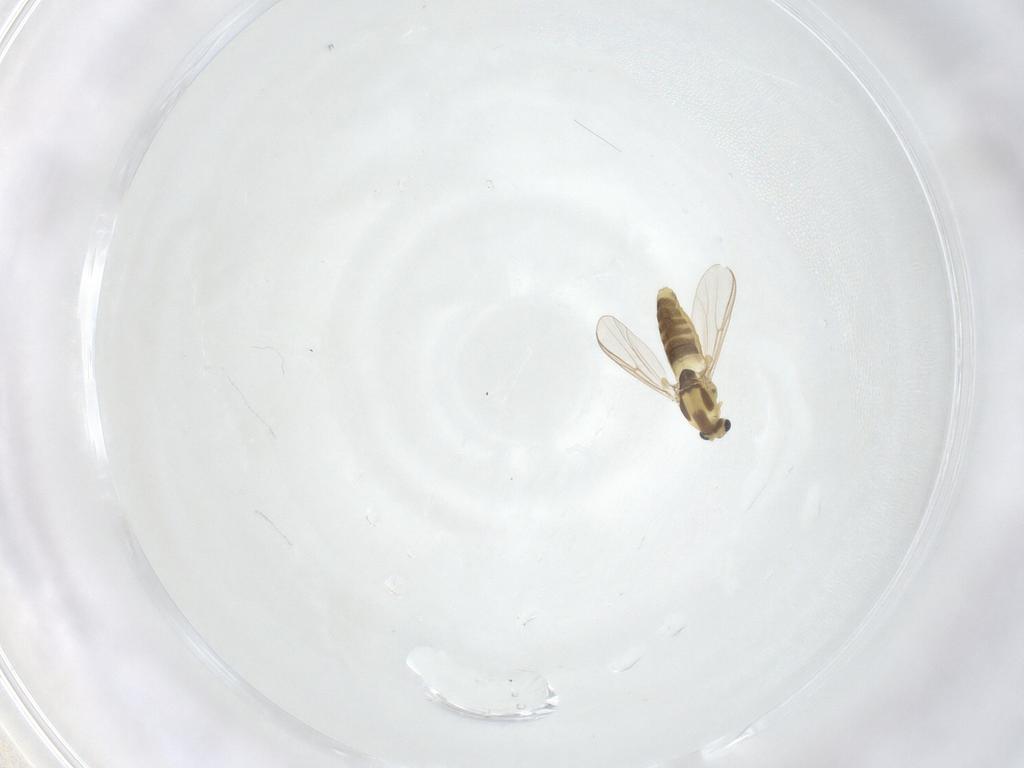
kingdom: Animalia
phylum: Arthropoda
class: Insecta
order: Diptera
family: Chironomidae
